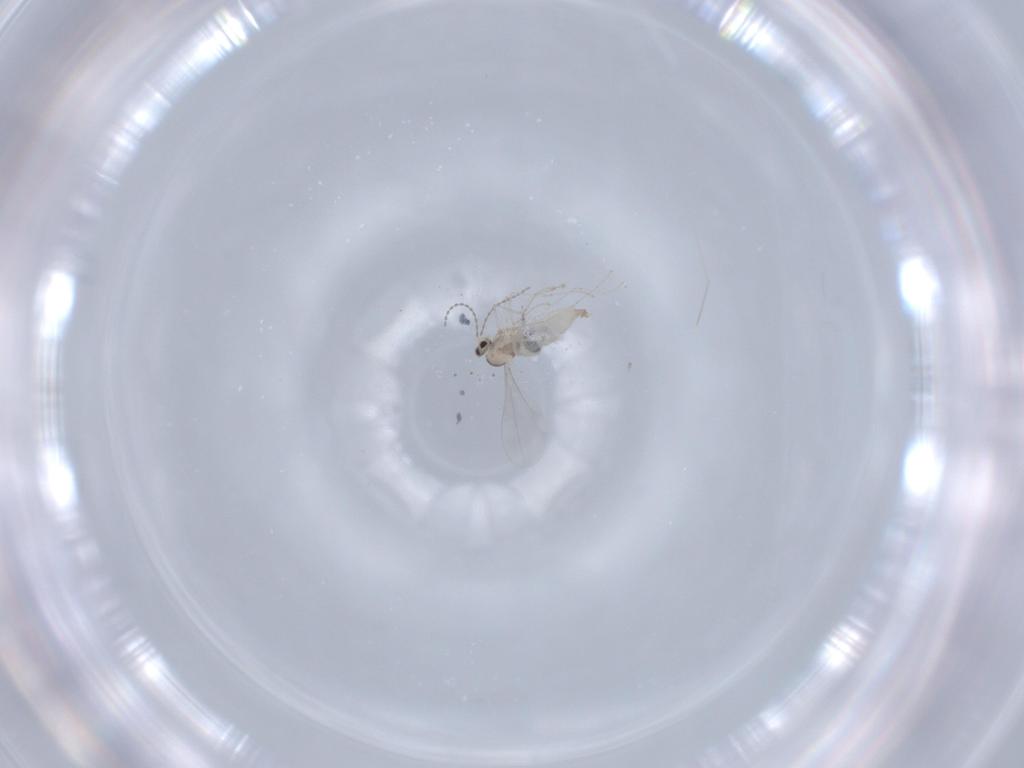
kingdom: Animalia
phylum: Arthropoda
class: Insecta
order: Diptera
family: Cecidomyiidae
